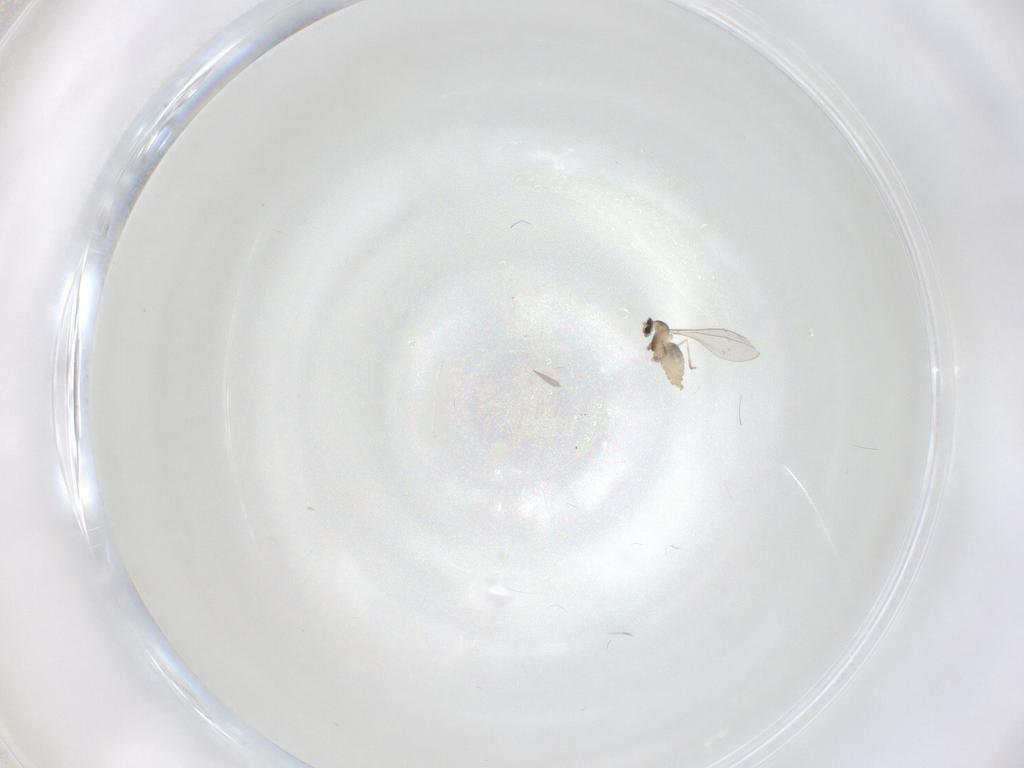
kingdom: Animalia
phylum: Arthropoda
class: Insecta
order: Diptera
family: Cecidomyiidae
